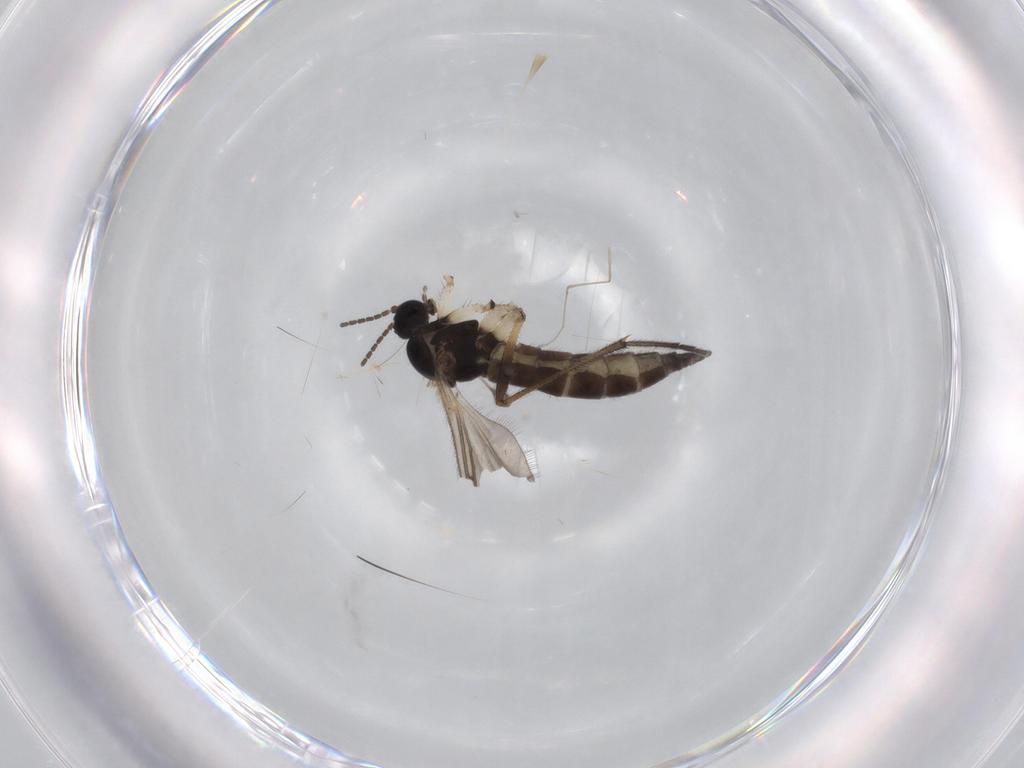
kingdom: Animalia
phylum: Arthropoda
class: Insecta
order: Diptera
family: Sciaridae
